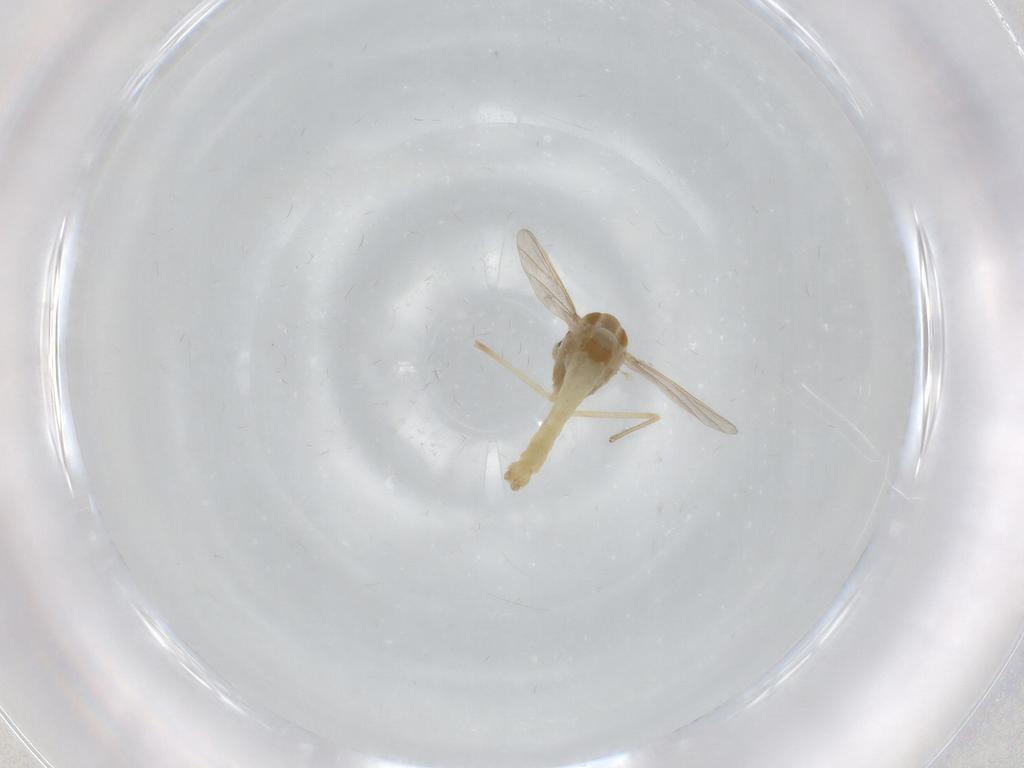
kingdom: Animalia
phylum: Arthropoda
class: Insecta
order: Diptera
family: Chironomidae
